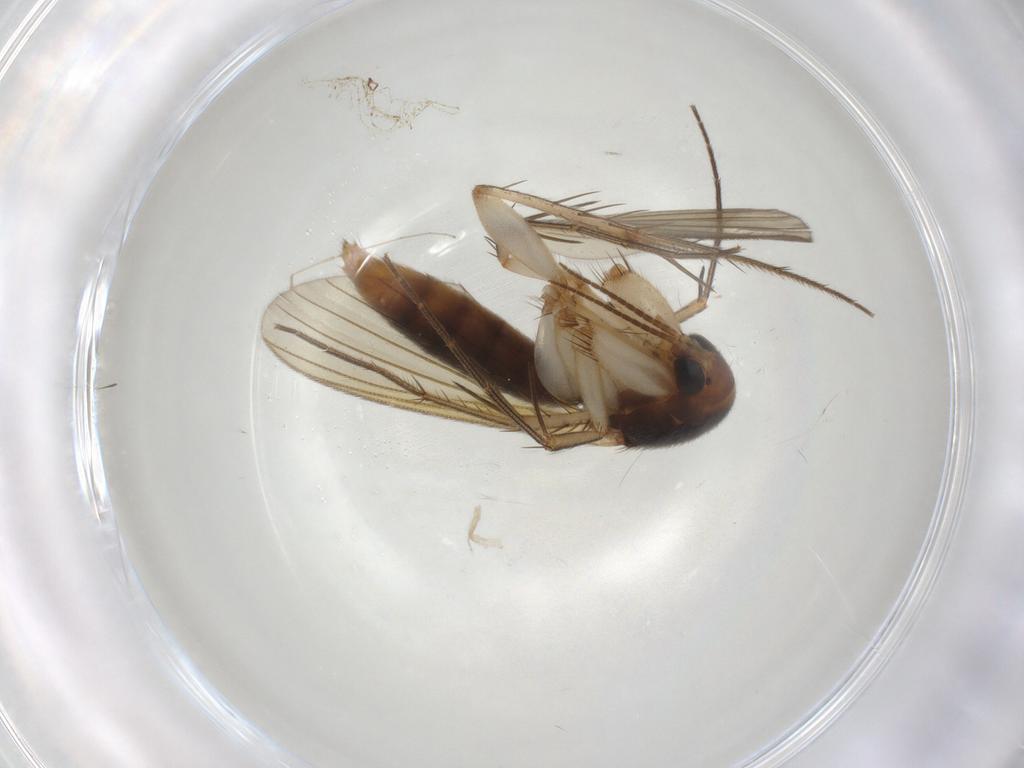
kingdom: Animalia
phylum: Arthropoda
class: Insecta
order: Diptera
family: Mycetophilidae
